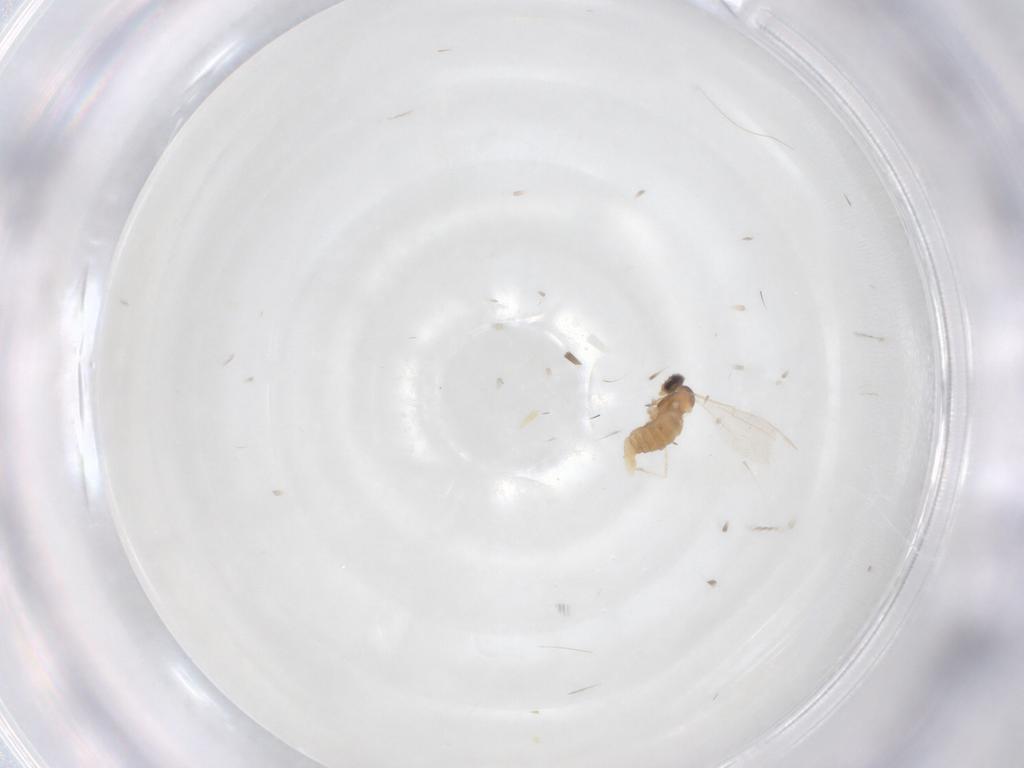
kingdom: Animalia
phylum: Arthropoda
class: Insecta
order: Diptera
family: Cecidomyiidae
